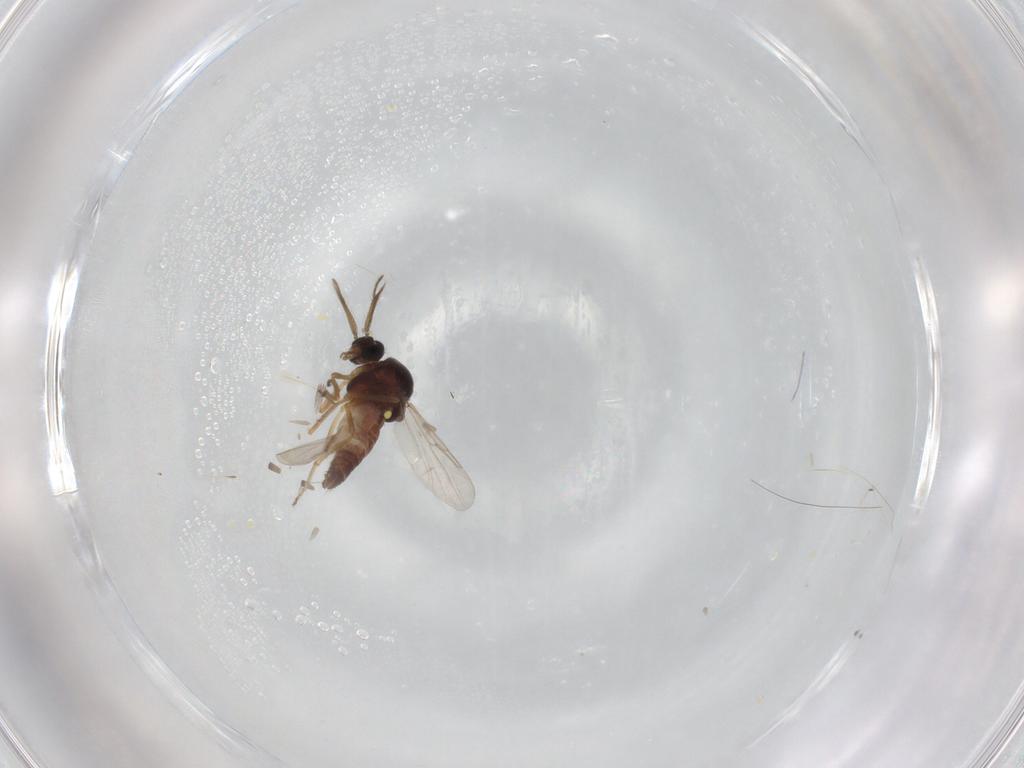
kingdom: Animalia
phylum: Arthropoda
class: Insecta
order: Diptera
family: Ceratopogonidae
